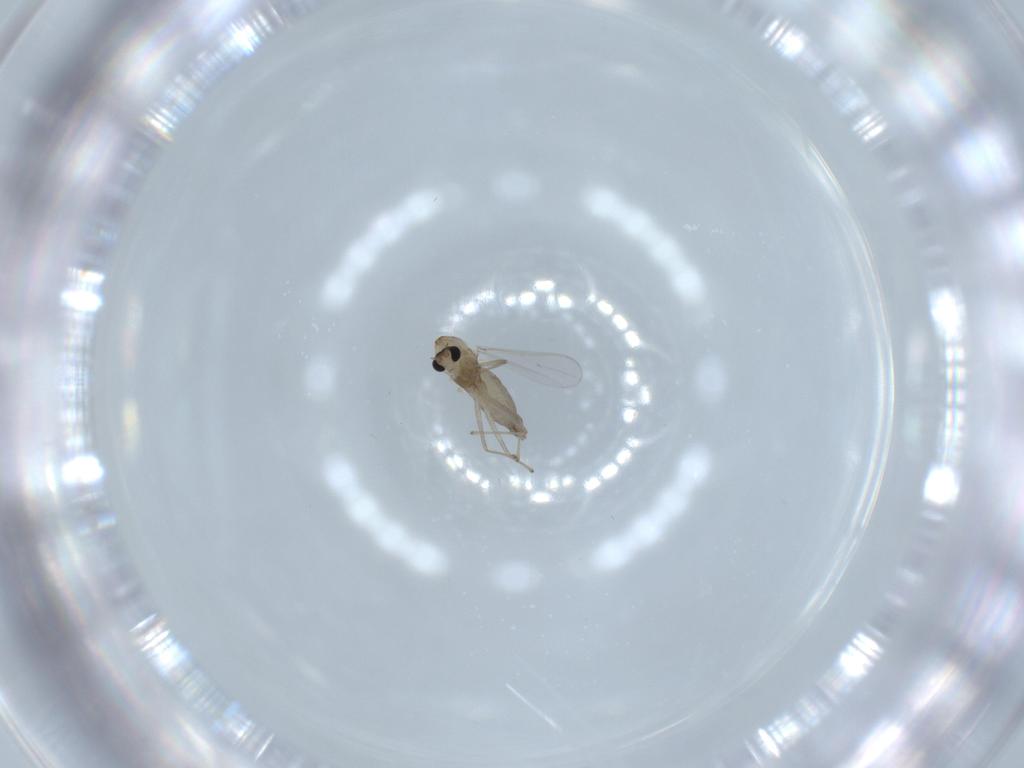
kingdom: Animalia
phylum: Arthropoda
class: Insecta
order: Diptera
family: Chironomidae
